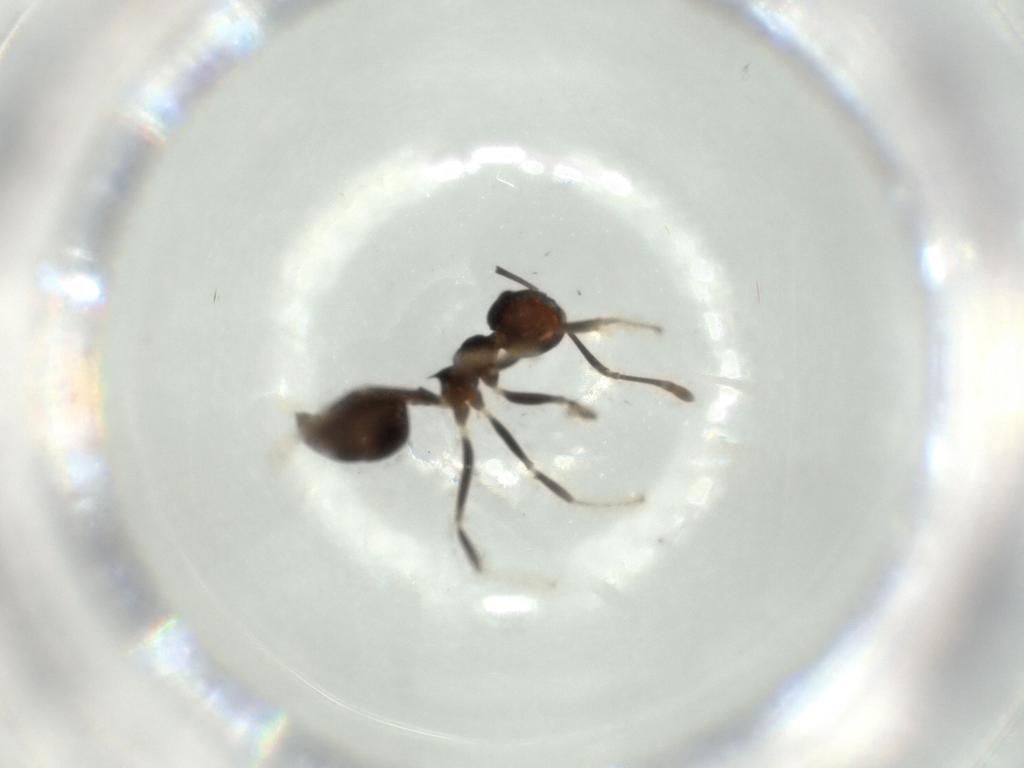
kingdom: Animalia
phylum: Arthropoda
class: Insecta
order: Hymenoptera
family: Formicidae
